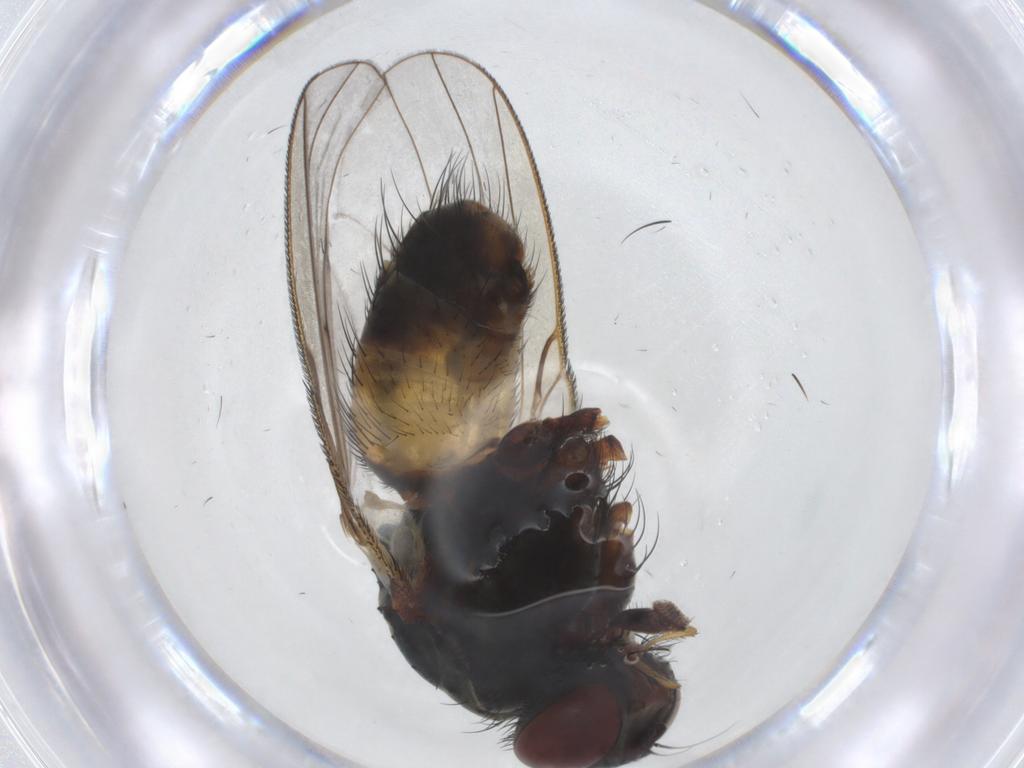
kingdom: Animalia
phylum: Arthropoda
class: Insecta
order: Diptera
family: Muscidae
